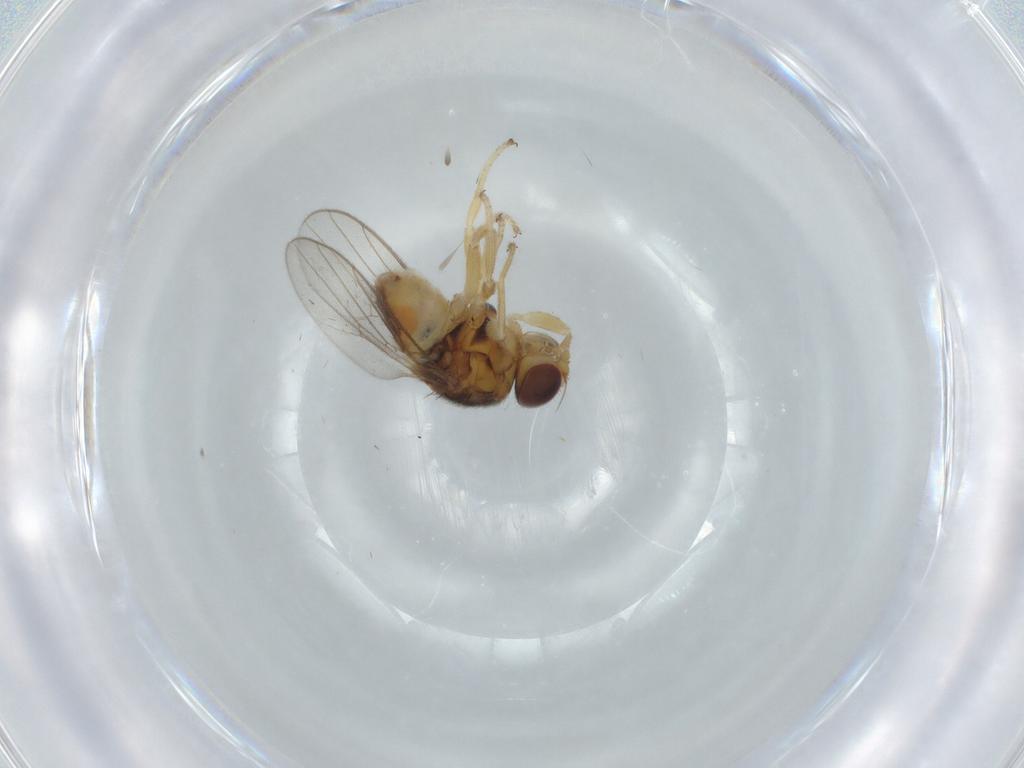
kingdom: Animalia
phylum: Arthropoda
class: Insecta
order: Diptera
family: Chloropidae
